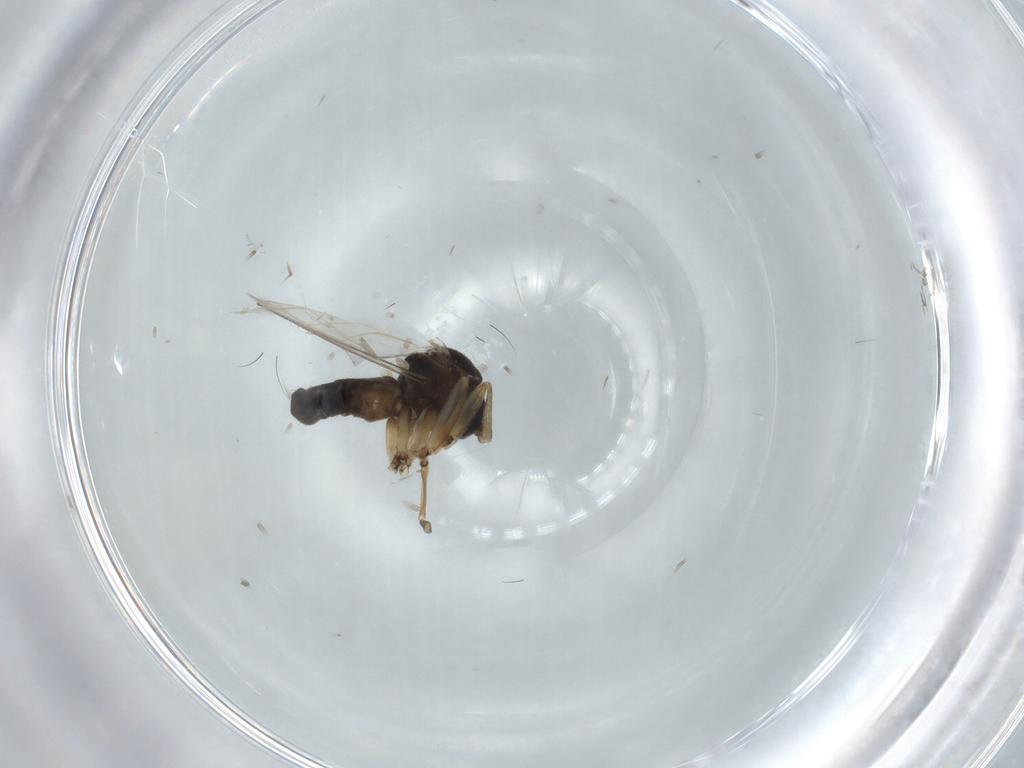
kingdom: Animalia
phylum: Arthropoda
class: Insecta
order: Diptera
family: Mycetophilidae
